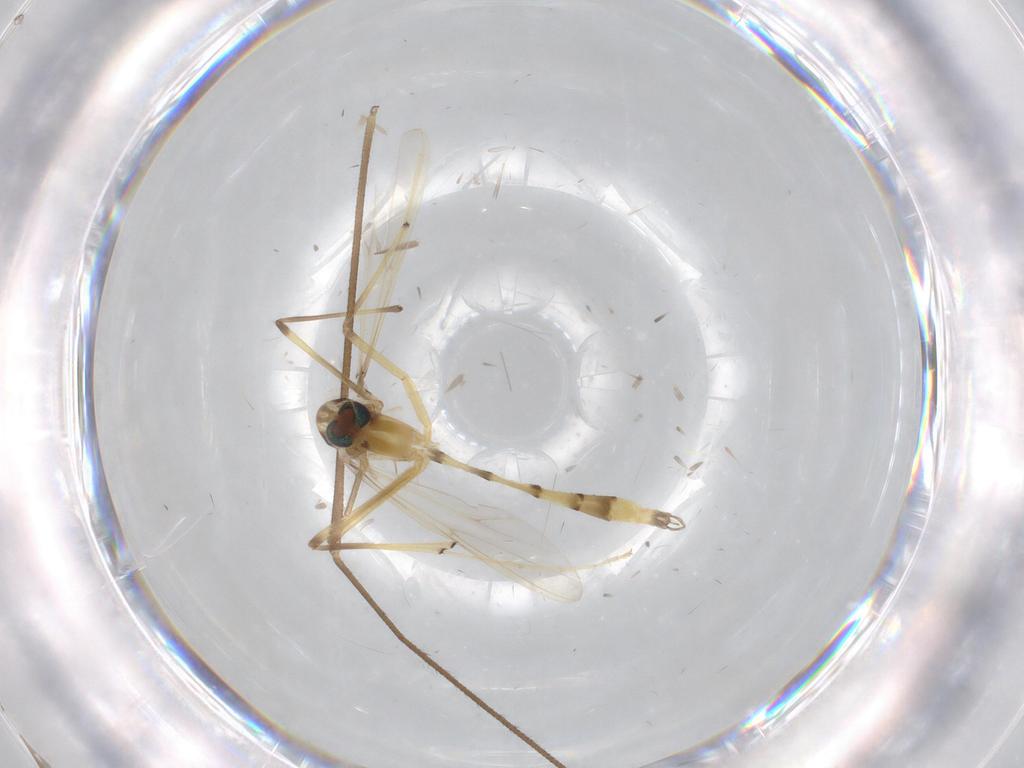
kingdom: Animalia
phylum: Arthropoda
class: Insecta
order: Diptera
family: Chironomidae
